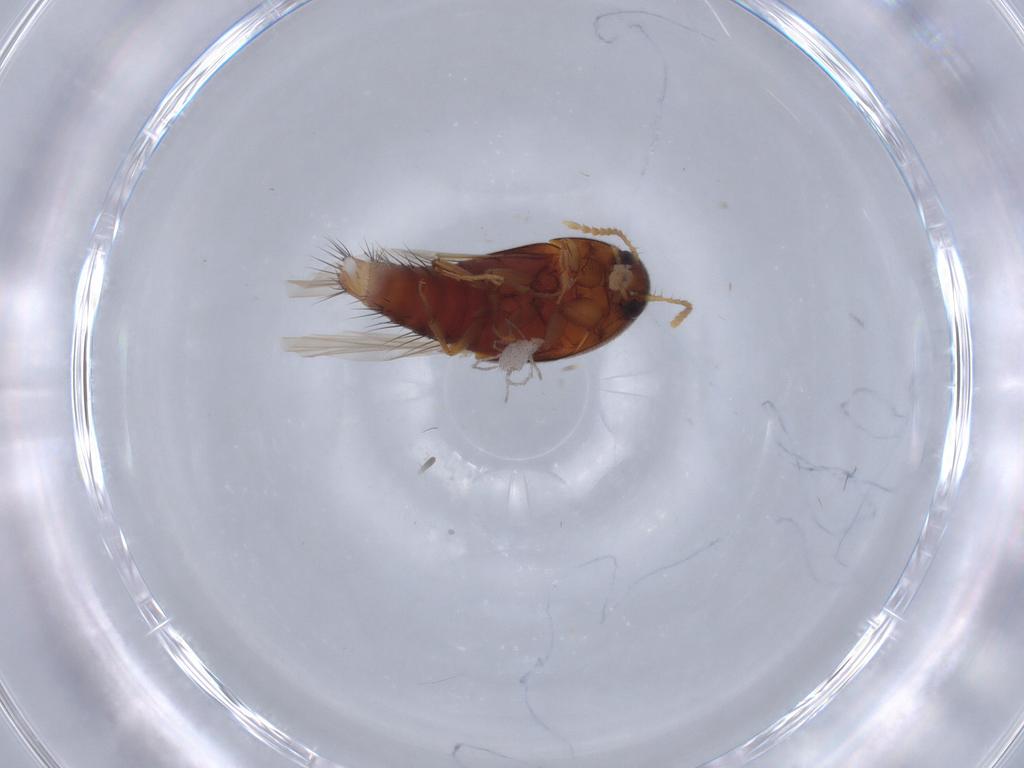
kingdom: Animalia
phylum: Arthropoda
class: Insecta
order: Coleoptera
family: Staphylinidae
